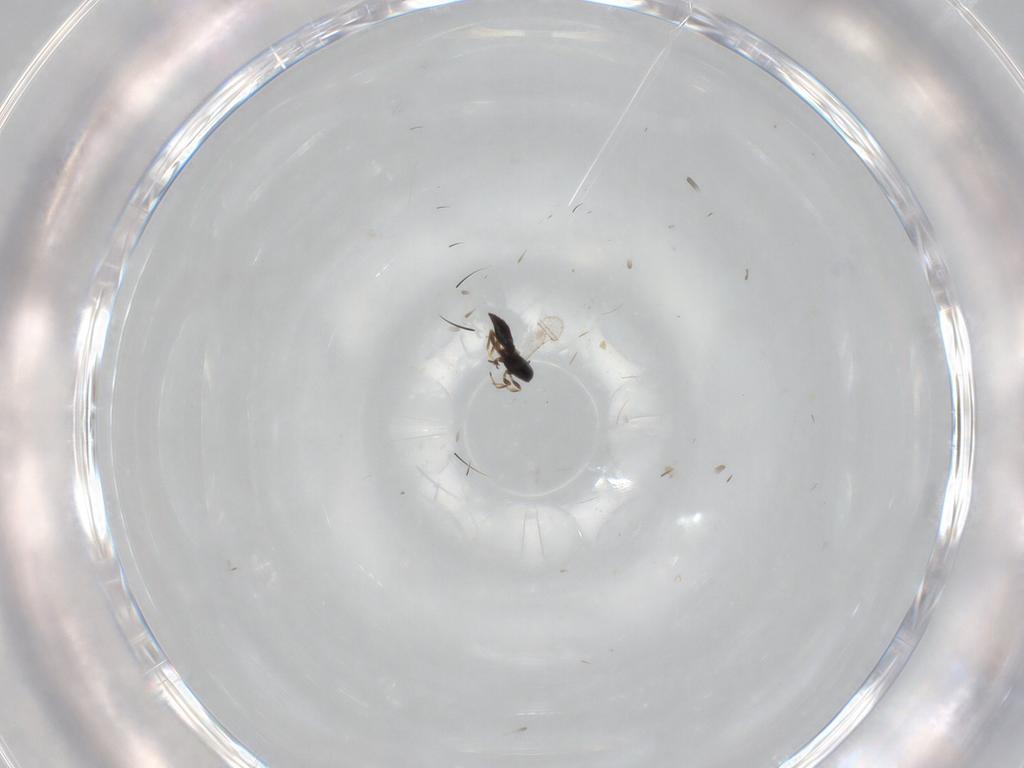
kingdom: Animalia
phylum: Arthropoda
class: Insecta
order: Hymenoptera
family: Scelionidae
